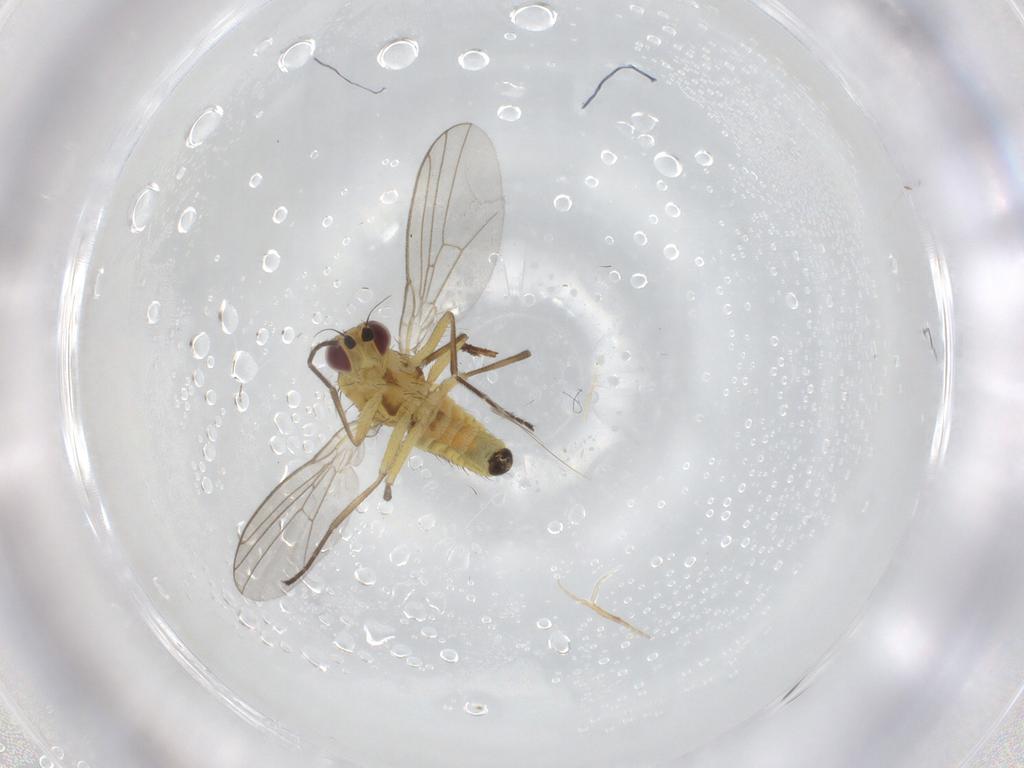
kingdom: Animalia
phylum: Arthropoda
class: Insecta
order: Diptera
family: Agromyzidae
